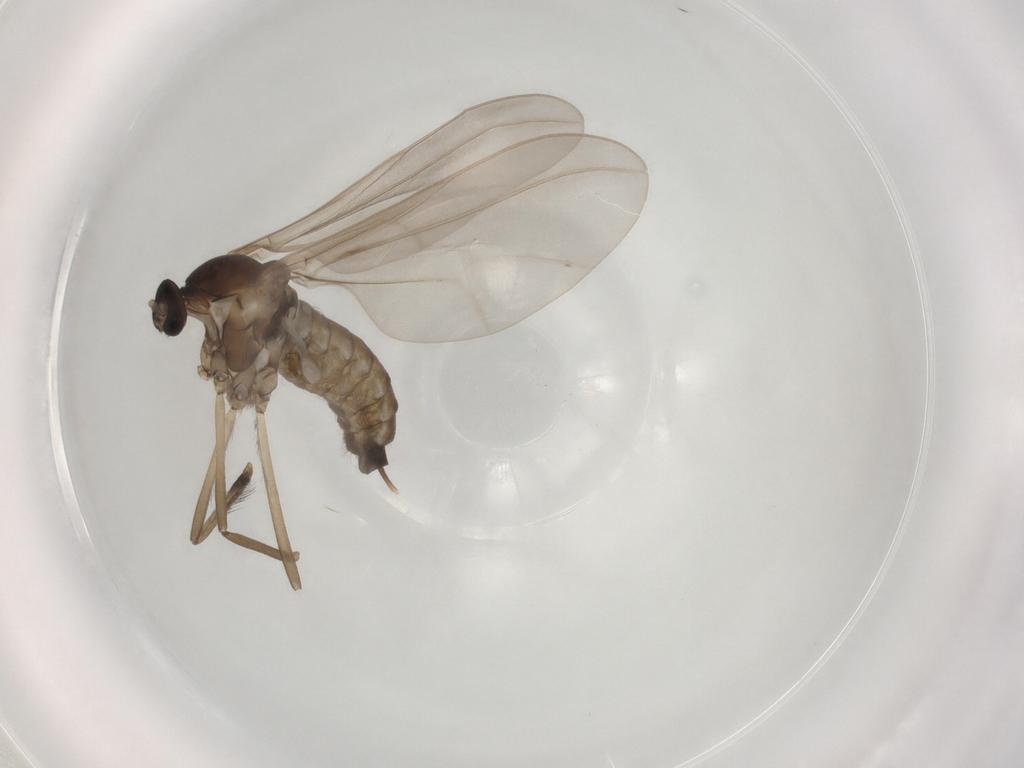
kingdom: Animalia
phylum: Arthropoda
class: Insecta
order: Diptera
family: Cecidomyiidae
